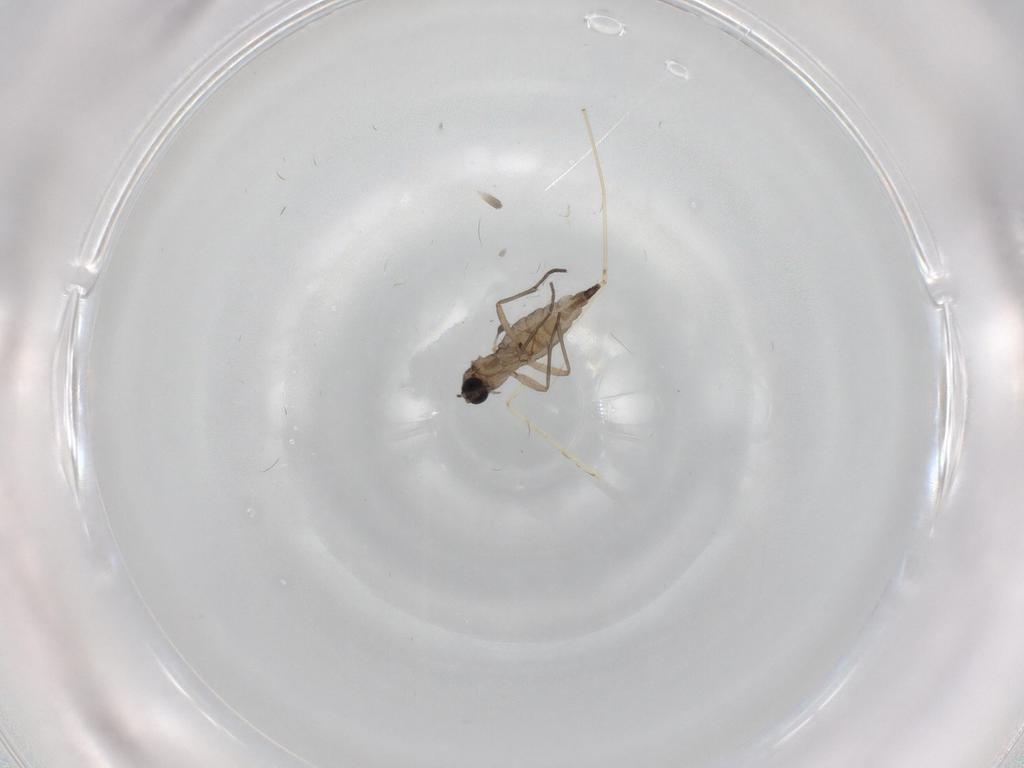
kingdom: Animalia
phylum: Arthropoda
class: Insecta
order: Diptera
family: Sciaridae
